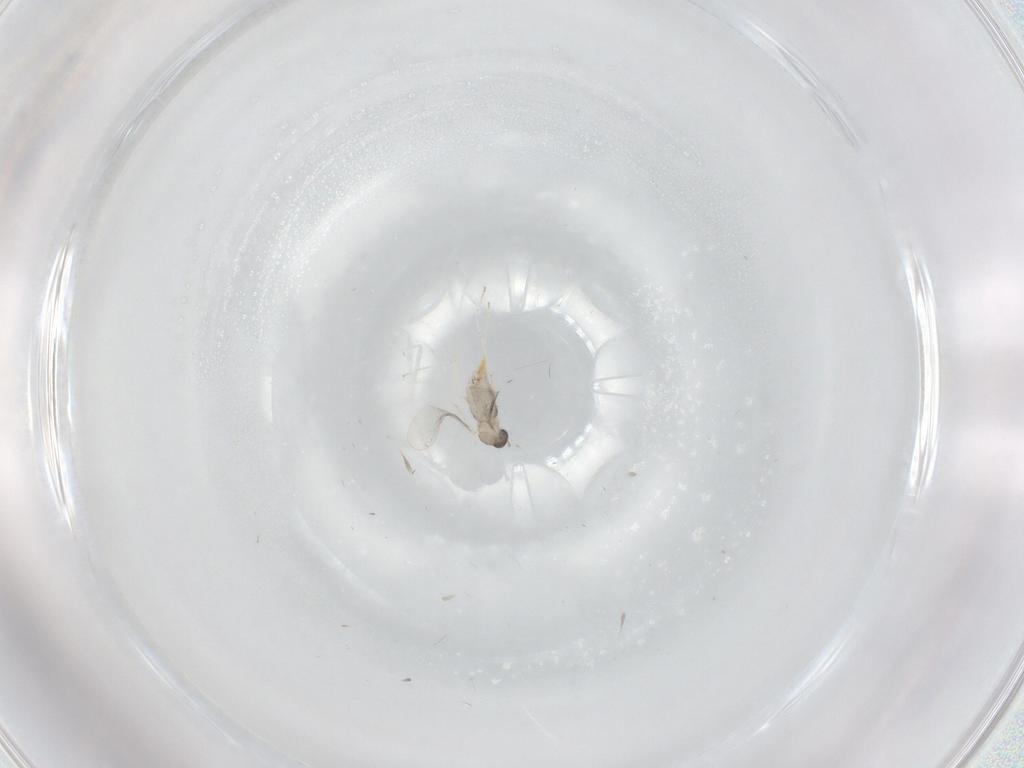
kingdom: Animalia
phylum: Arthropoda
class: Insecta
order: Diptera
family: Cecidomyiidae
